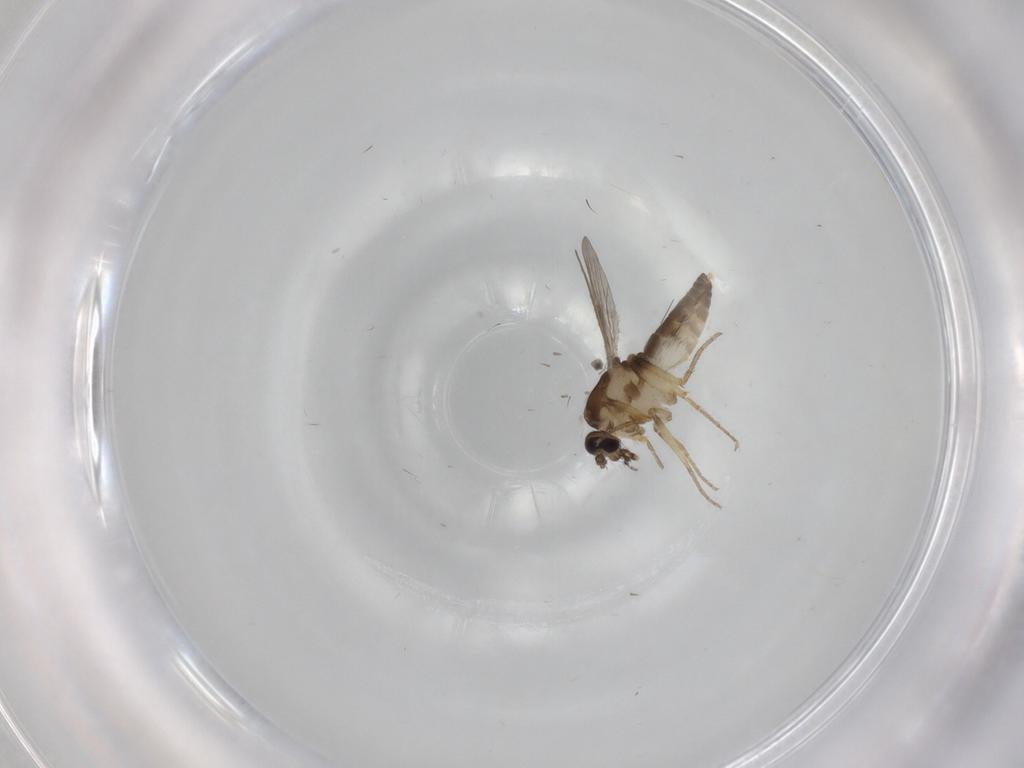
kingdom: Animalia
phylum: Arthropoda
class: Insecta
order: Diptera
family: Ceratopogonidae
